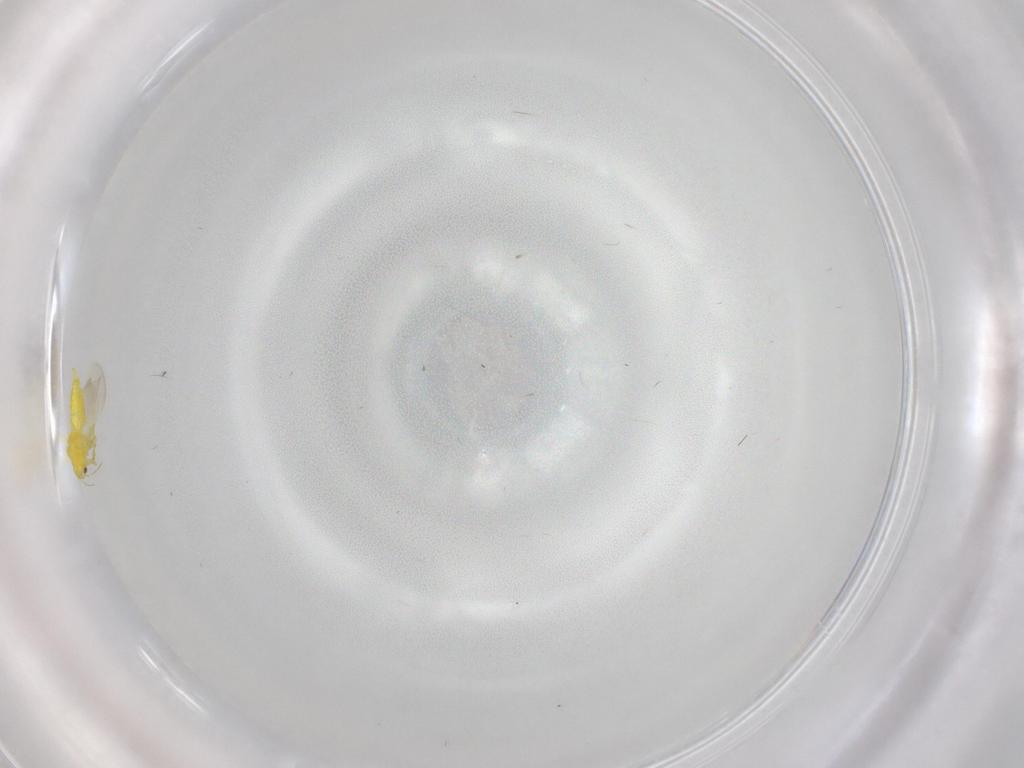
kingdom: Animalia
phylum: Arthropoda
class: Insecta
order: Hemiptera
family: Aleyrodidae
